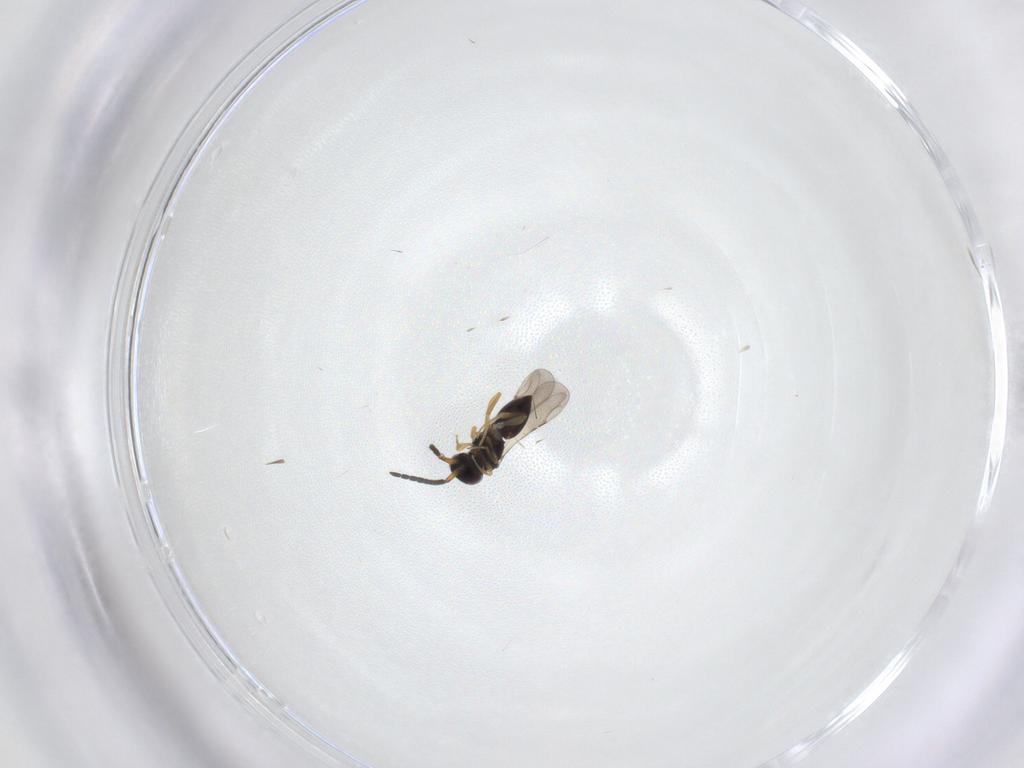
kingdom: Animalia
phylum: Arthropoda
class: Insecta
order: Hymenoptera
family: Ceraphronidae
